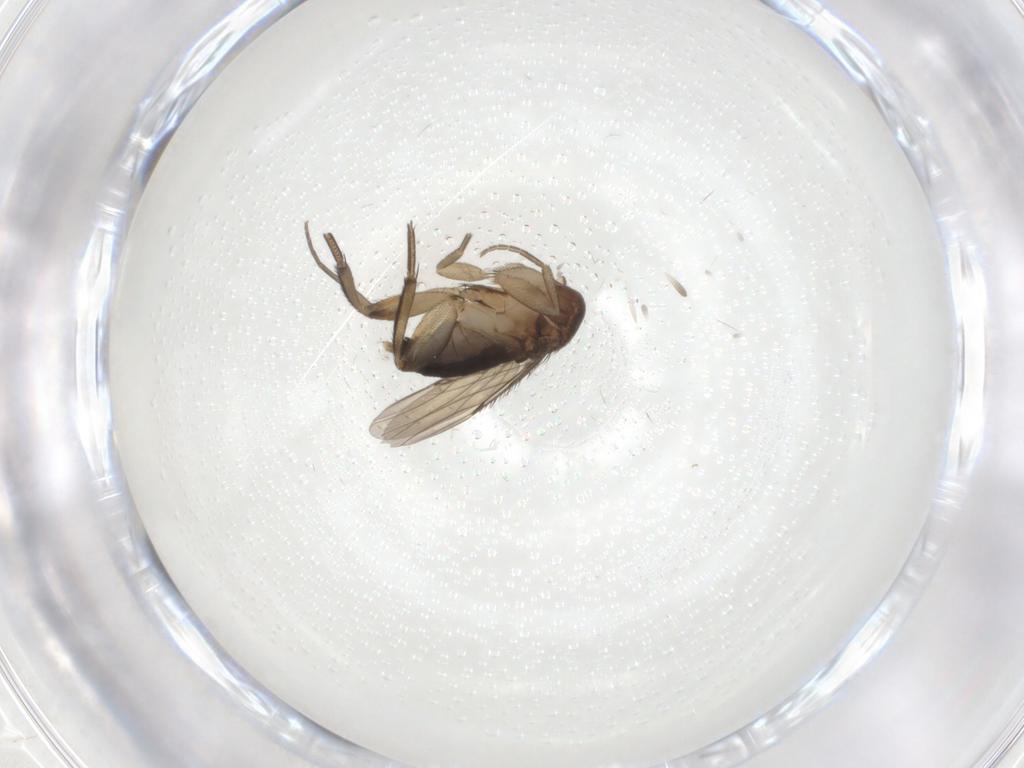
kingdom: Animalia
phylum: Arthropoda
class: Insecta
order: Diptera
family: Phoridae
